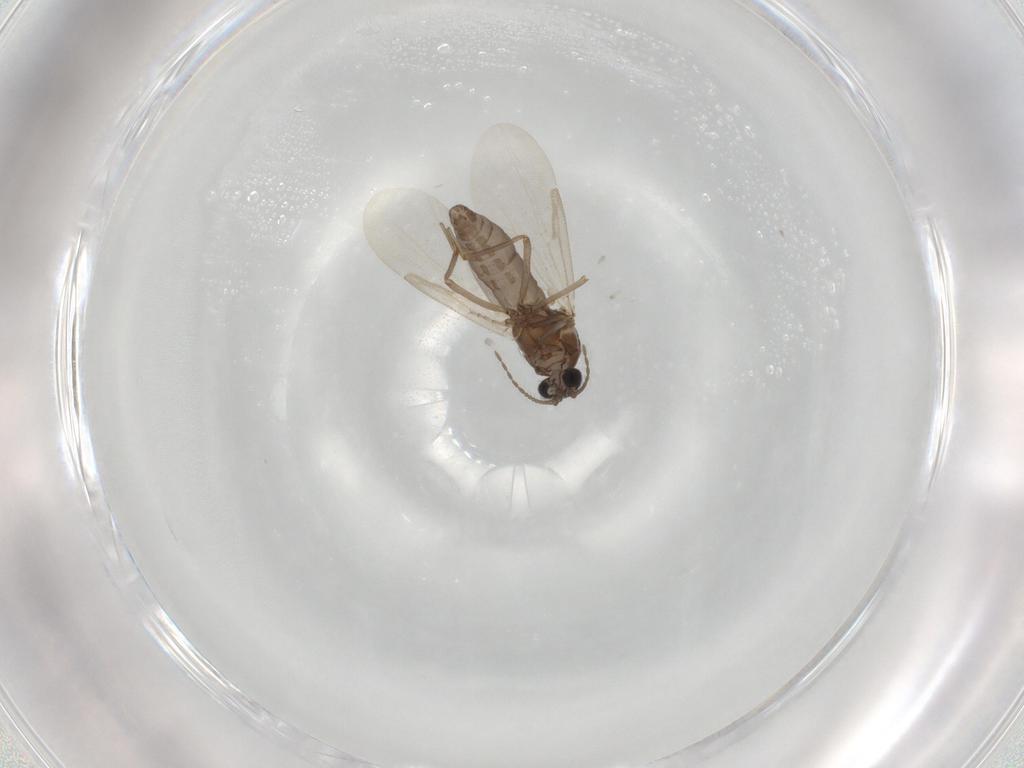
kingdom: Animalia
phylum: Arthropoda
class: Insecta
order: Diptera
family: Ceratopogonidae
